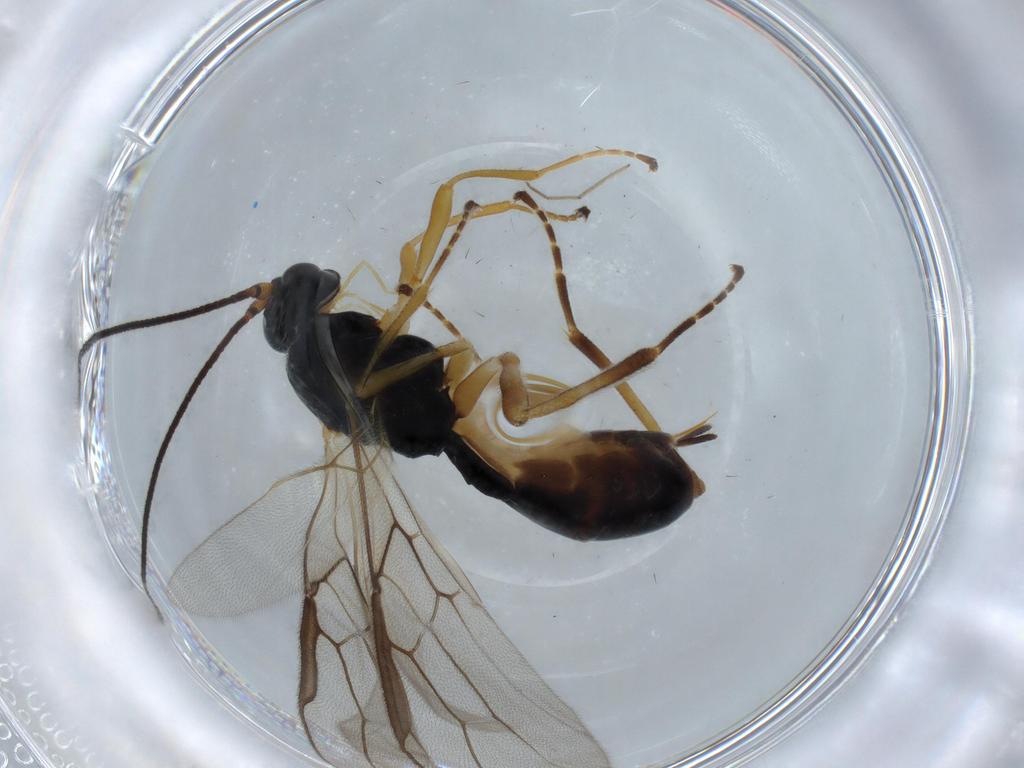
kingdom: Animalia
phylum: Arthropoda
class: Insecta
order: Hymenoptera
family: Braconidae
